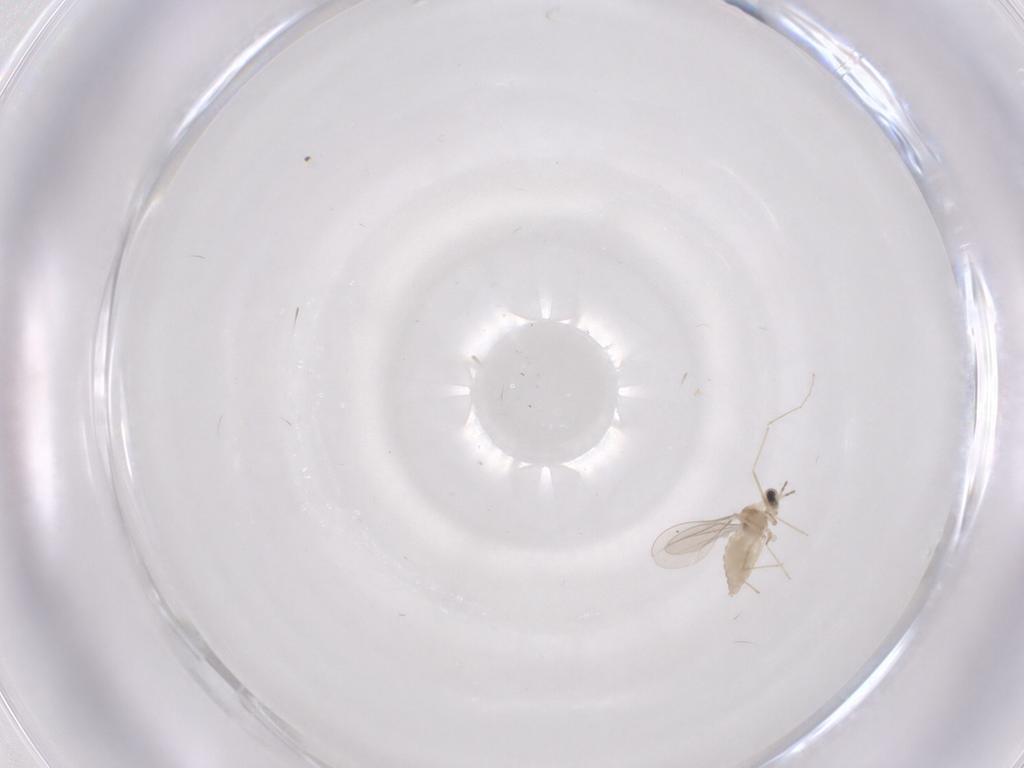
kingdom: Animalia
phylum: Arthropoda
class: Insecta
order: Diptera
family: Cecidomyiidae
